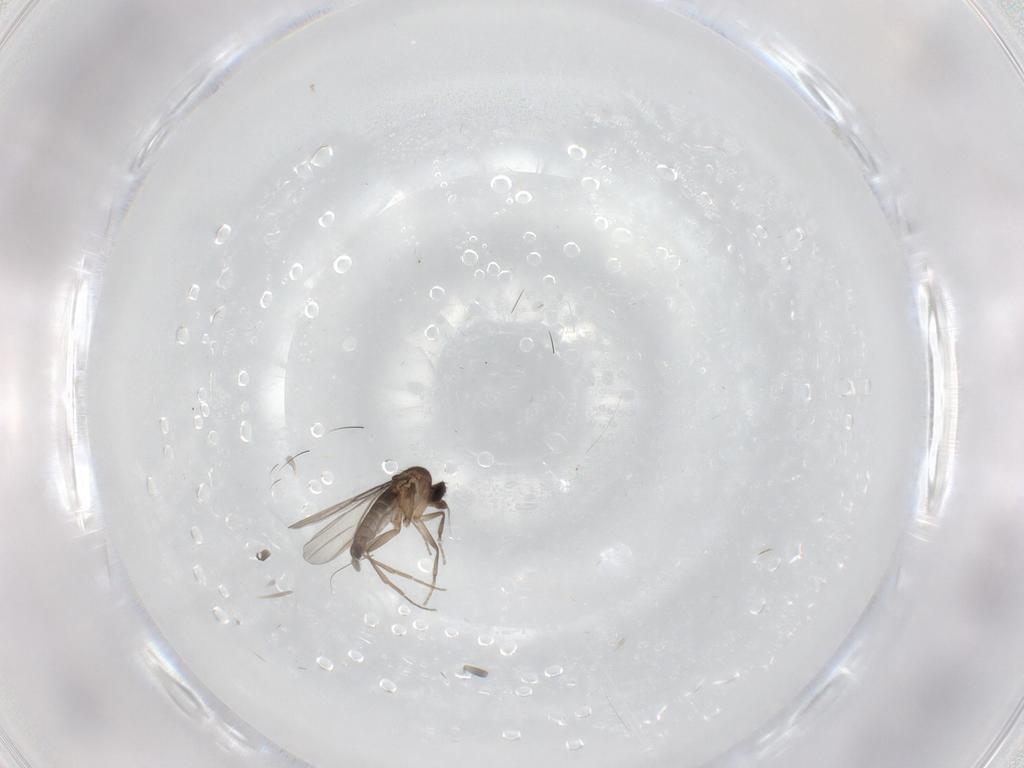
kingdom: Animalia
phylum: Arthropoda
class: Insecta
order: Diptera
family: Phoridae
